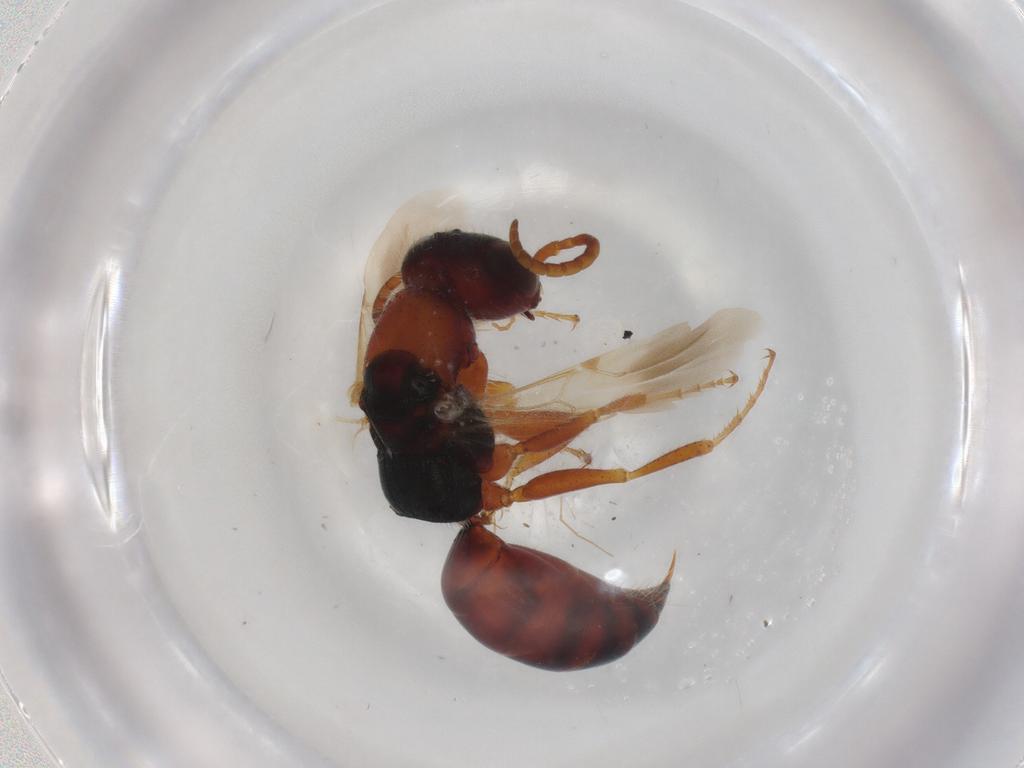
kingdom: Animalia
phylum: Arthropoda
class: Insecta
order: Hymenoptera
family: Bethylidae
